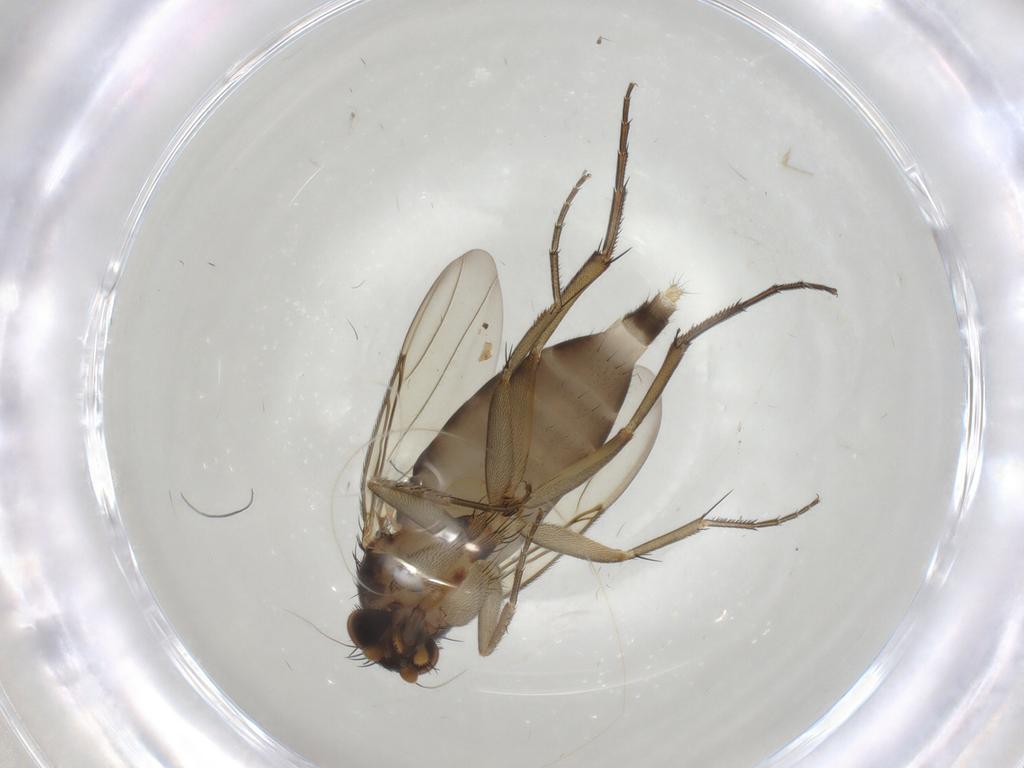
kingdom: Animalia
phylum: Arthropoda
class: Insecta
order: Diptera
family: Phoridae
